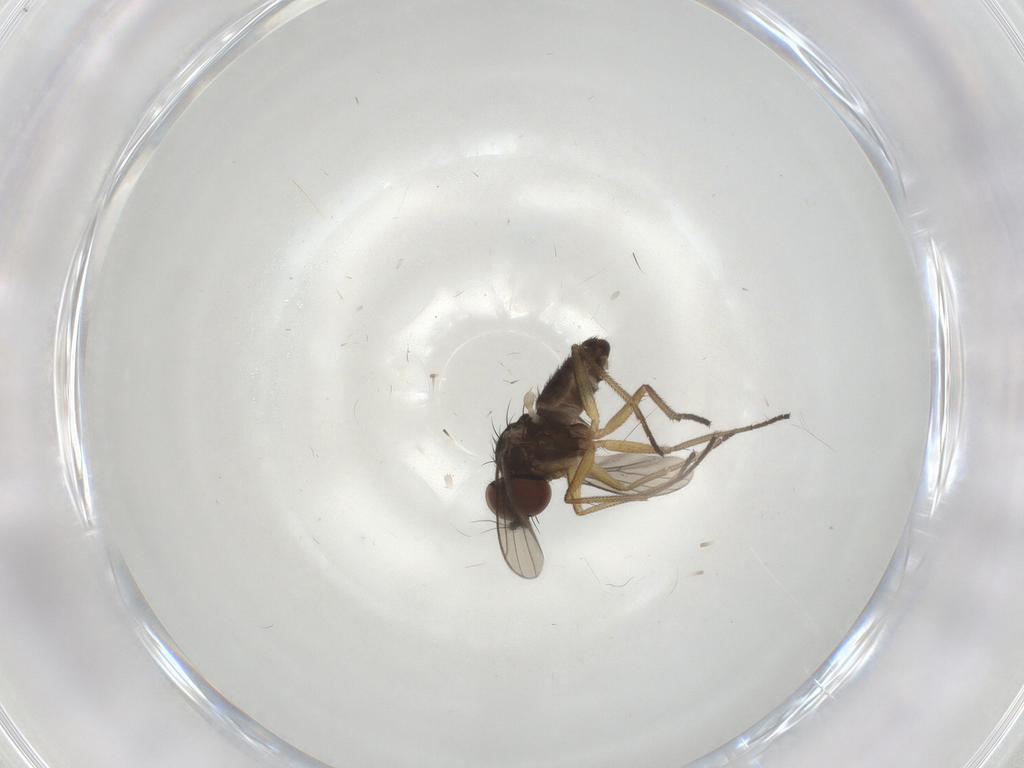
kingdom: Animalia
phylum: Arthropoda
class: Insecta
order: Diptera
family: Dolichopodidae
